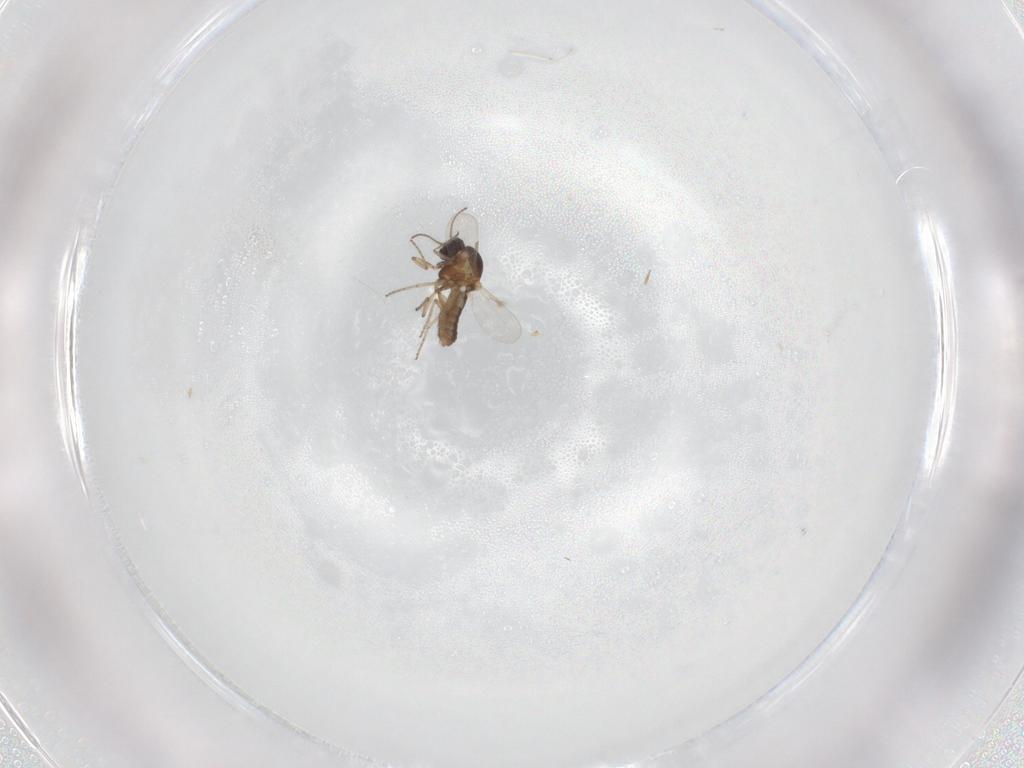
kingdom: Animalia
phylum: Arthropoda
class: Insecta
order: Diptera
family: Ceratopogonidae
